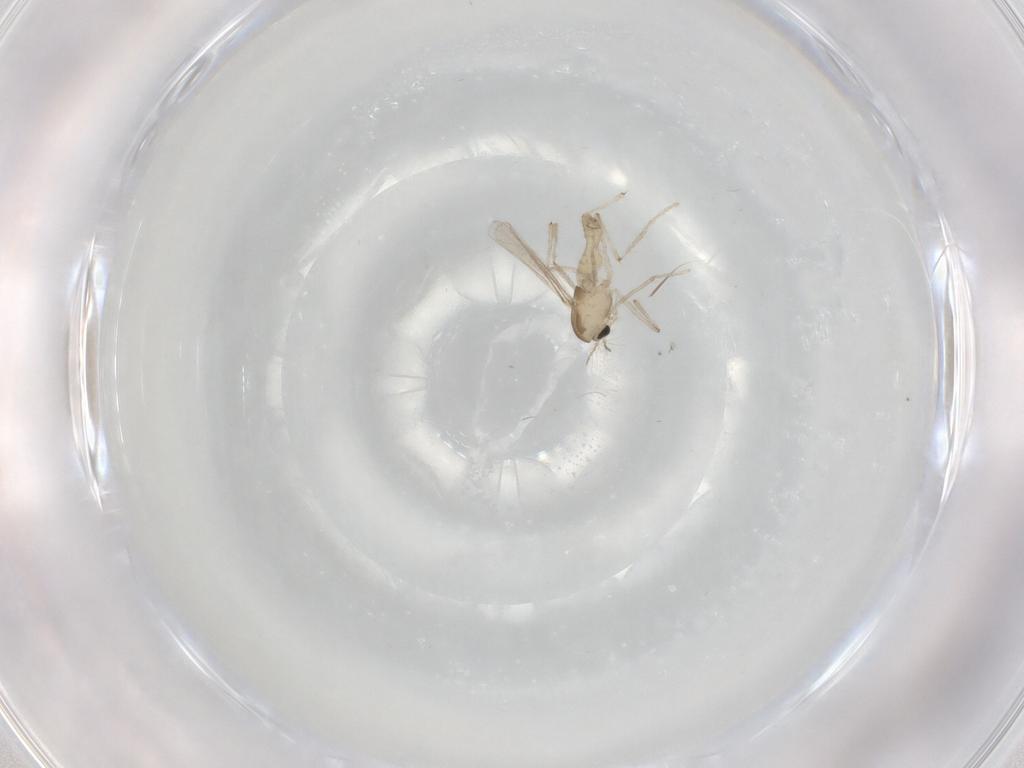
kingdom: Animalia
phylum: Arthropoda
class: Insecta
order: Diptera
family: Chironomidae
